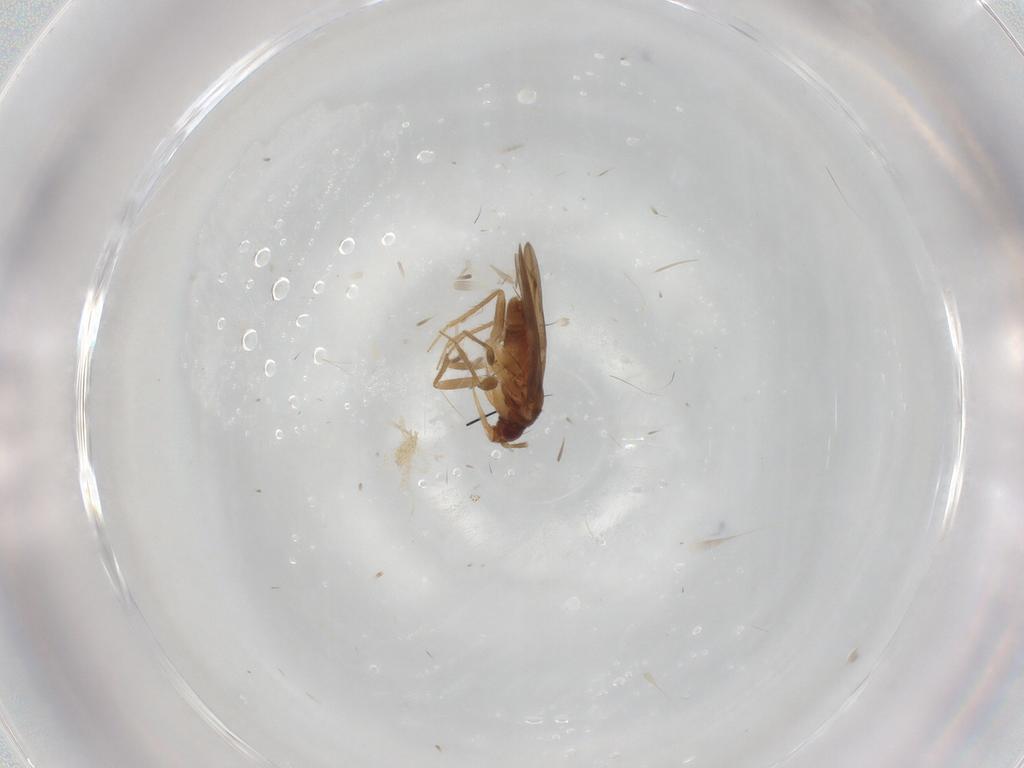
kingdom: Animalia
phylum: Arthropoda
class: Insecta
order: Hemiptera
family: Ceratocombidae
